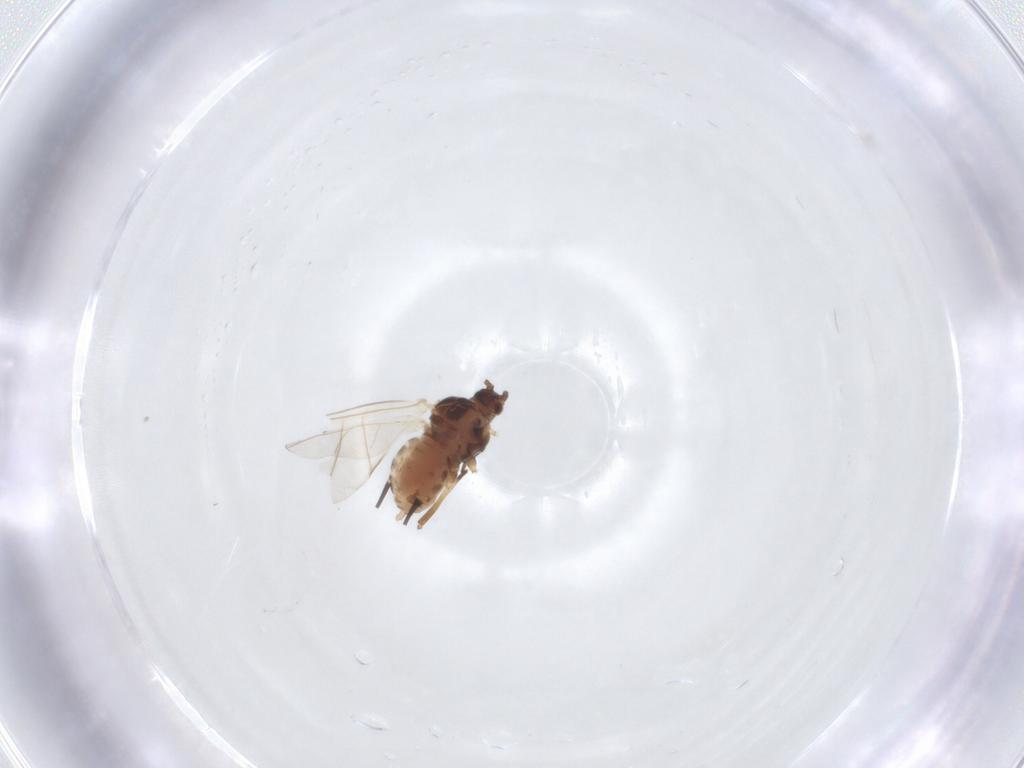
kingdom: Animalia
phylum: Arthropoda
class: Insecta
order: Hemiptera
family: Aphididae
